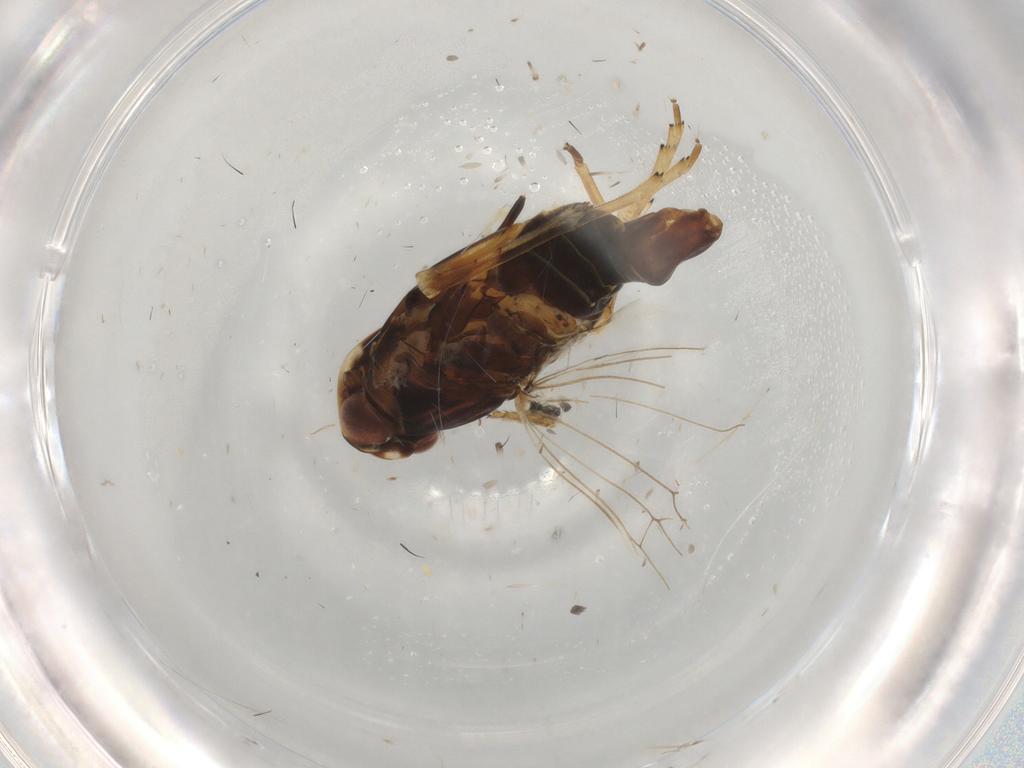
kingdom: Animalia
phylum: Arthropoda
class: Insecta
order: Hemiptera
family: Cixiidae
